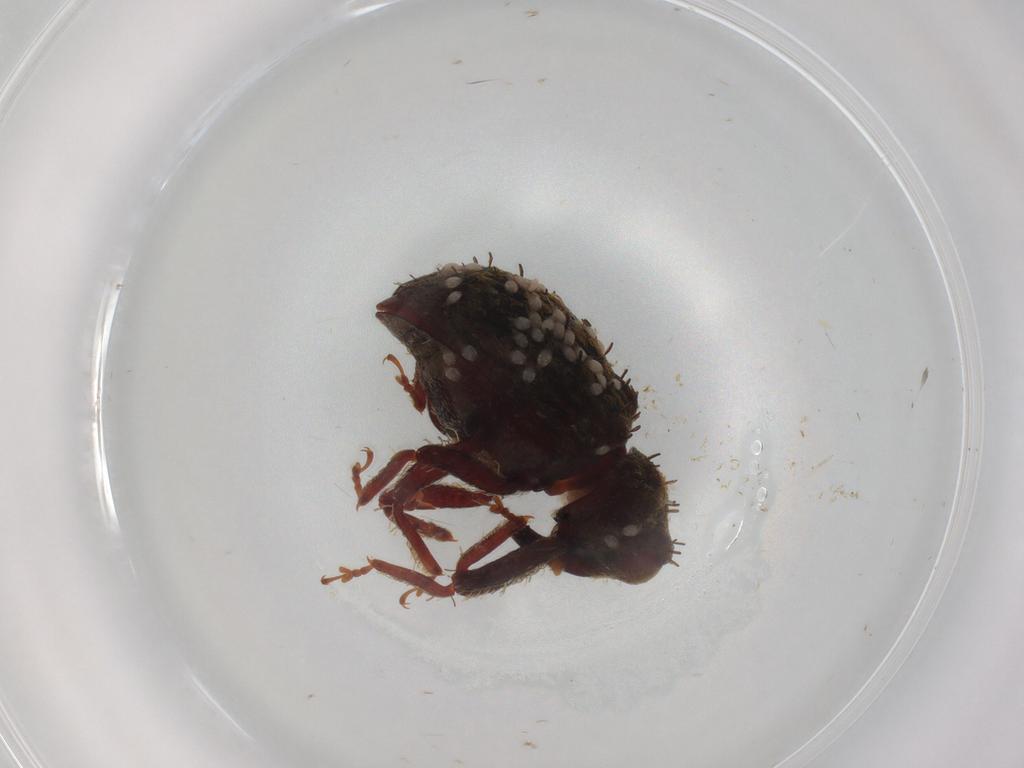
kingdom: Animalia
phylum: Arthropoda
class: Insecta
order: Coleoptera
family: Curculionidae
